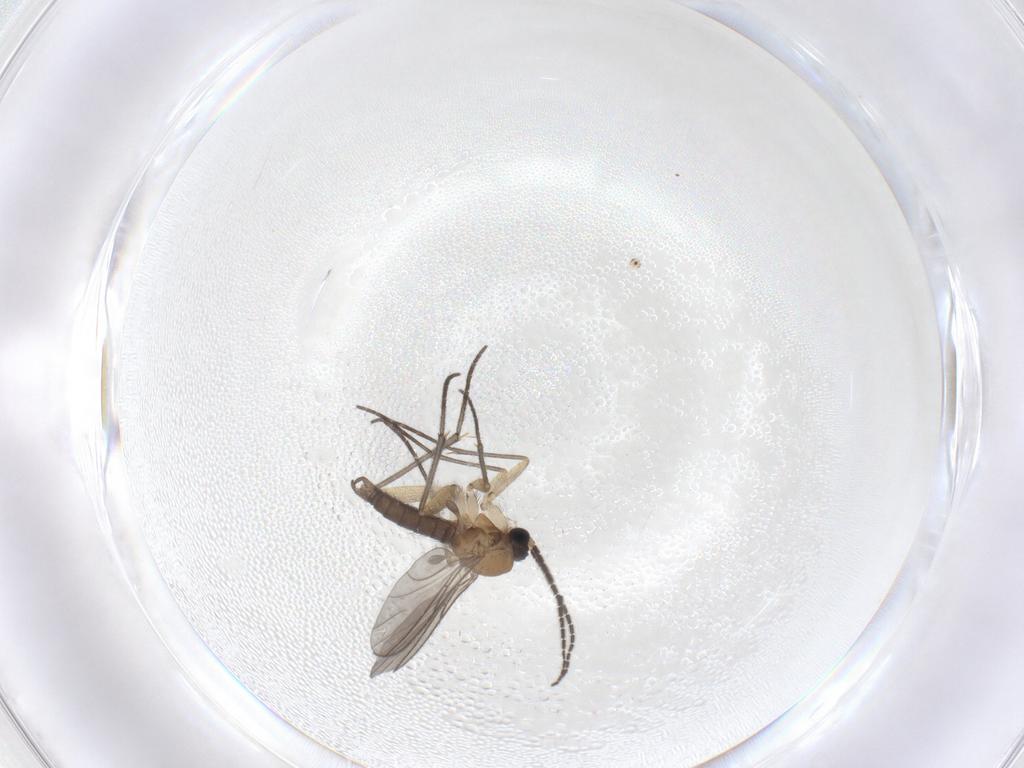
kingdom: Animalia
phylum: Arthropoda
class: Insecta
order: Diptera
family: Sciaridae
